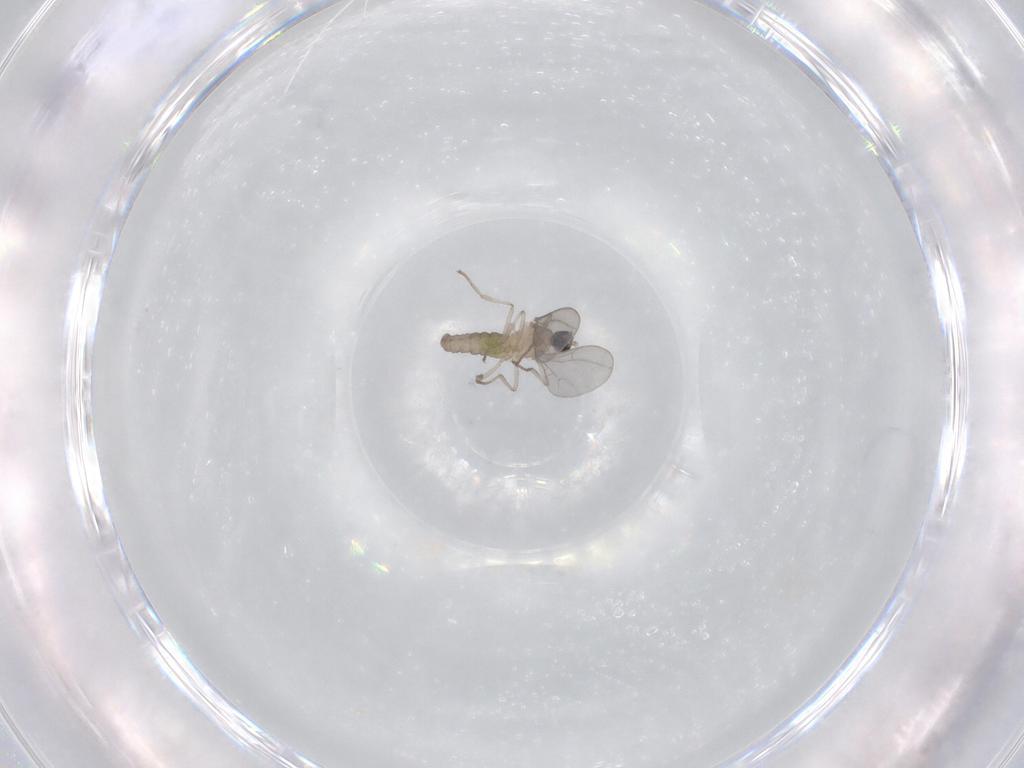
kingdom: Animalia
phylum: Arthropoda
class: Insecta
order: Diptera
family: Cecidomyiidae
